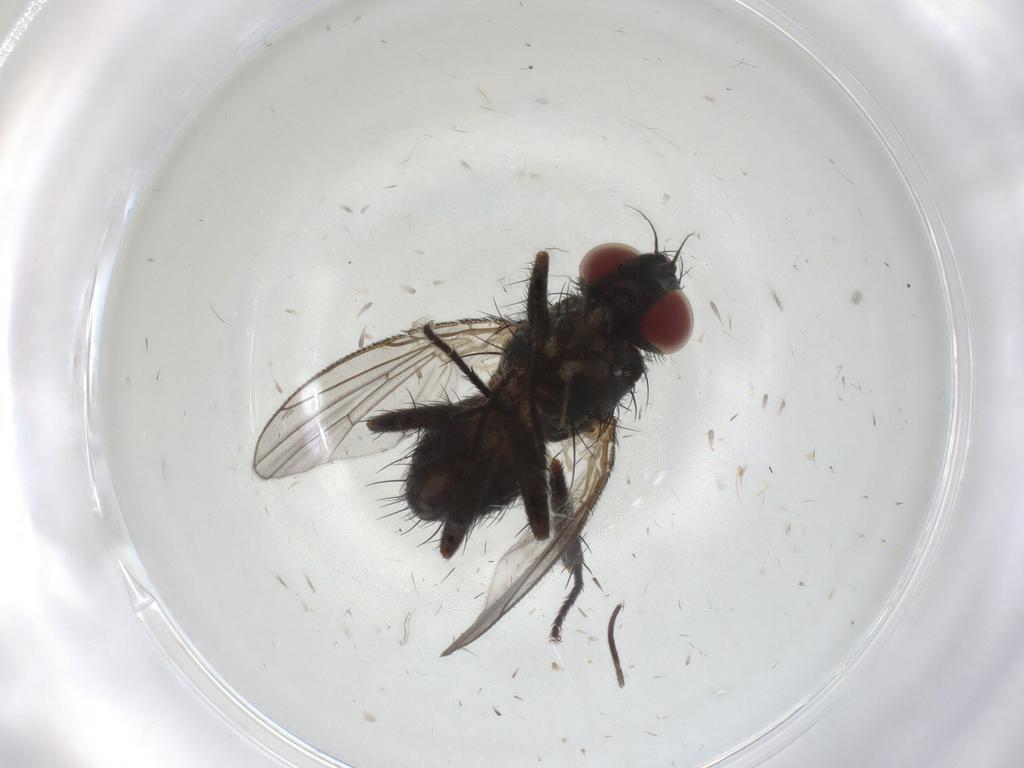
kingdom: Animalia
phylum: Arthropoda
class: Insecta
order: Diptera
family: Muscidae
